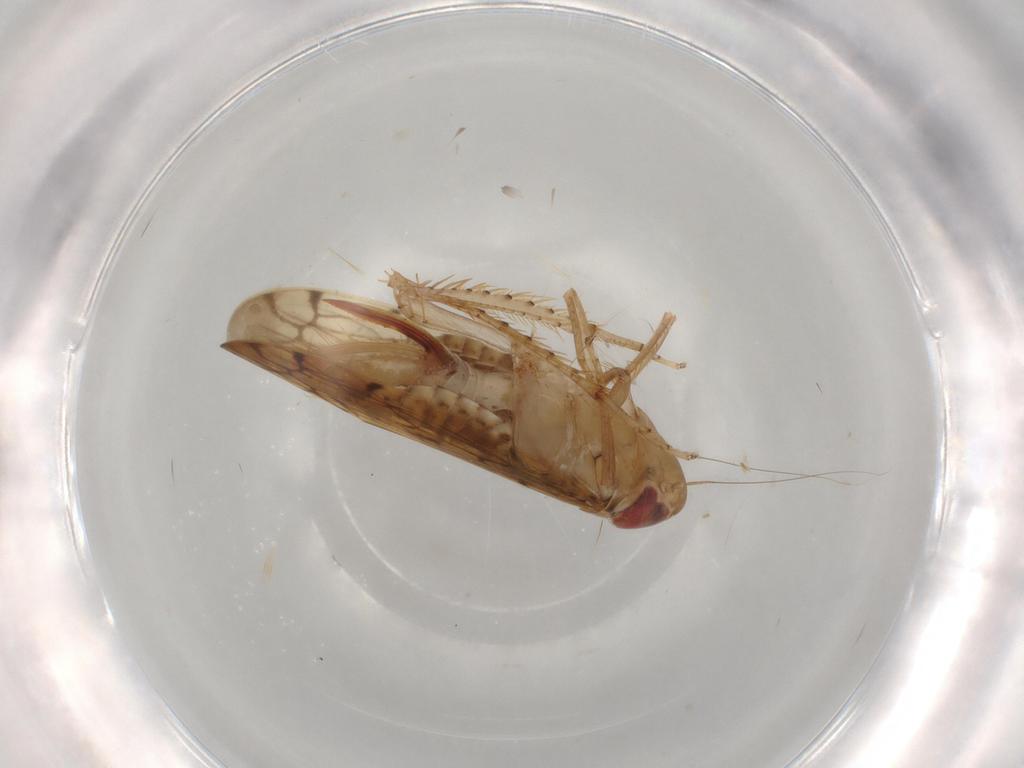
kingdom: Animalia
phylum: Arthropoda
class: Insecta
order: Hemiptera
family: Cicadellidae
